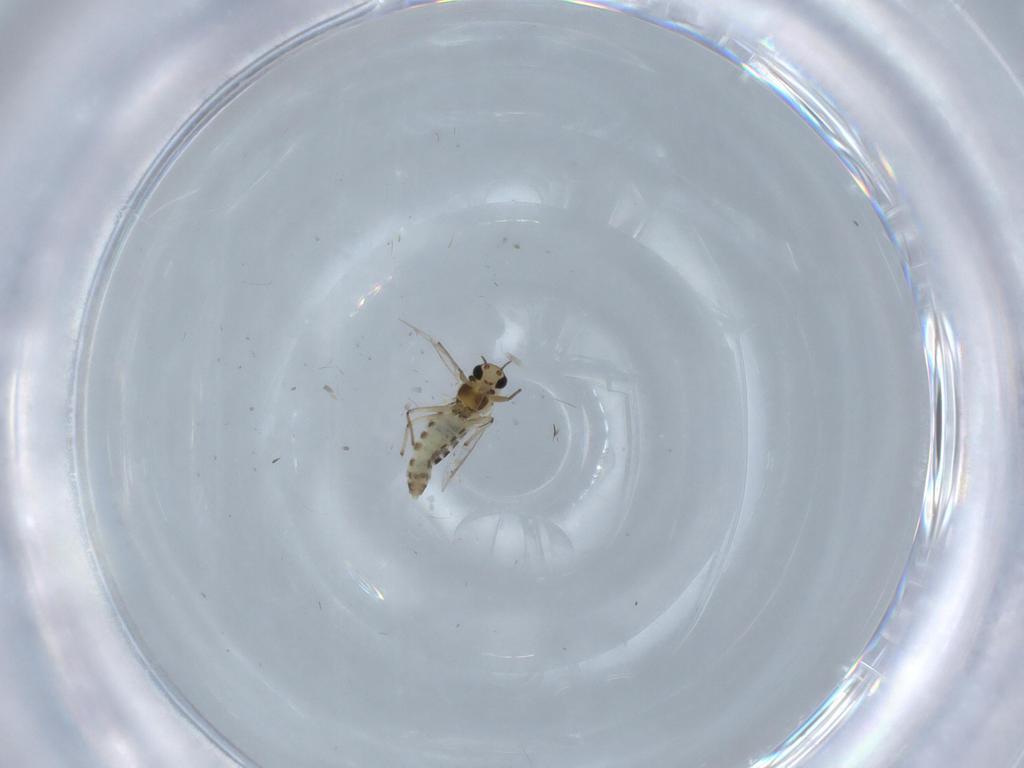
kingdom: Animalia
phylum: Arthropoda
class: Insecta
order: Diptera
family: Chironomidae
